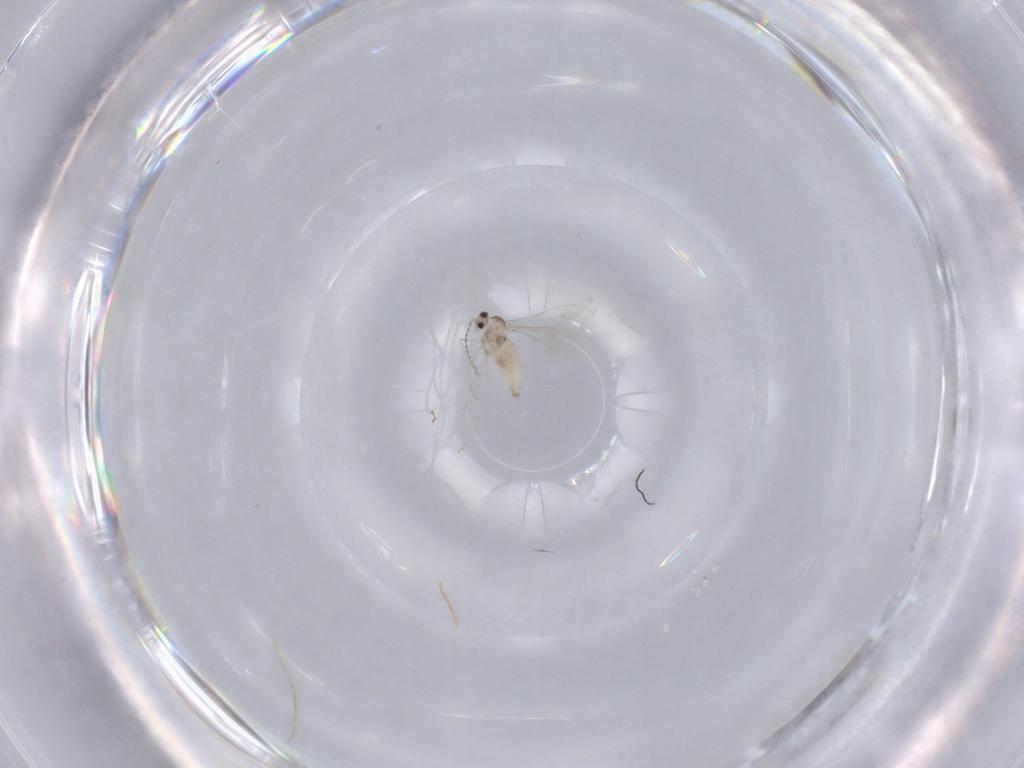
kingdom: Animalia
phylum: Arthropoda
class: Insecta
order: Diptera
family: Cecidomyiidae
